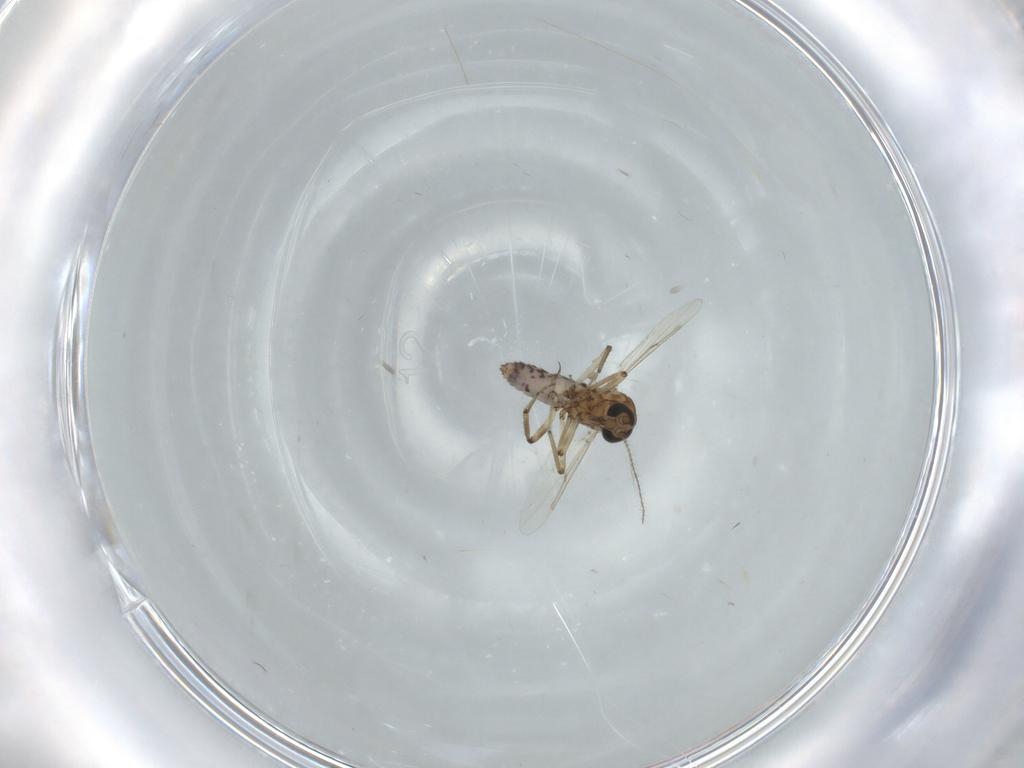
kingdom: Animalia
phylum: Arthropoda
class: Insecta
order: Diptera
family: Ceratopogonidae
